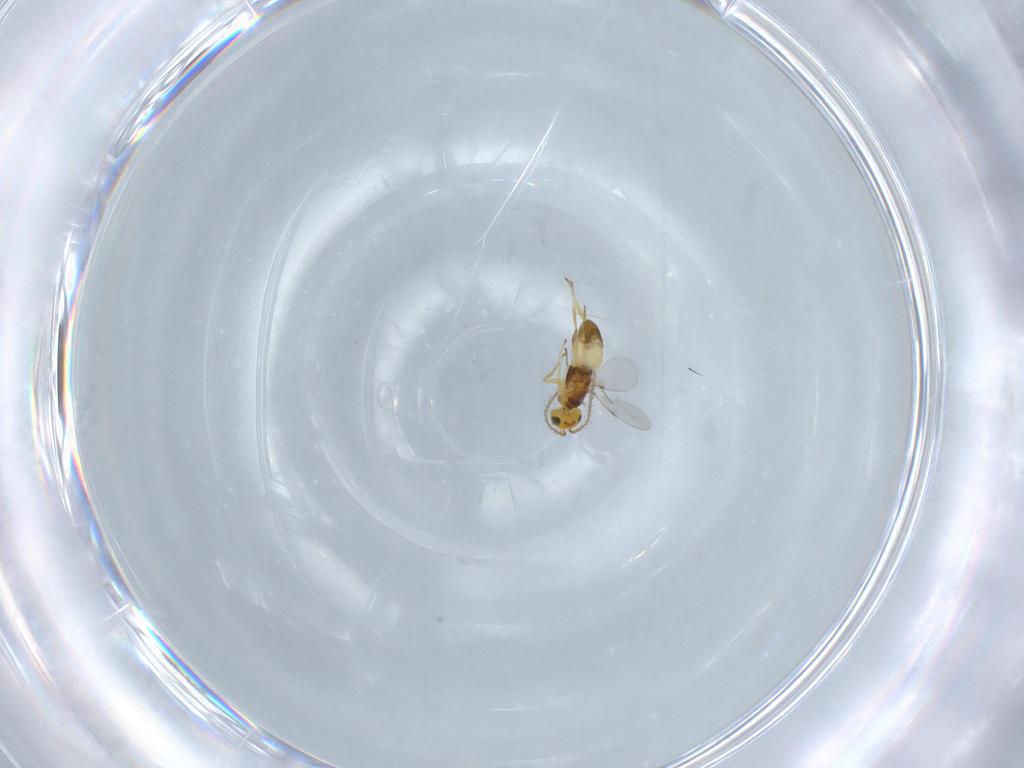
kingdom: Animalia
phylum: Arthropoda
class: Insecta
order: Hymenoptera
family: Encyrtidae
